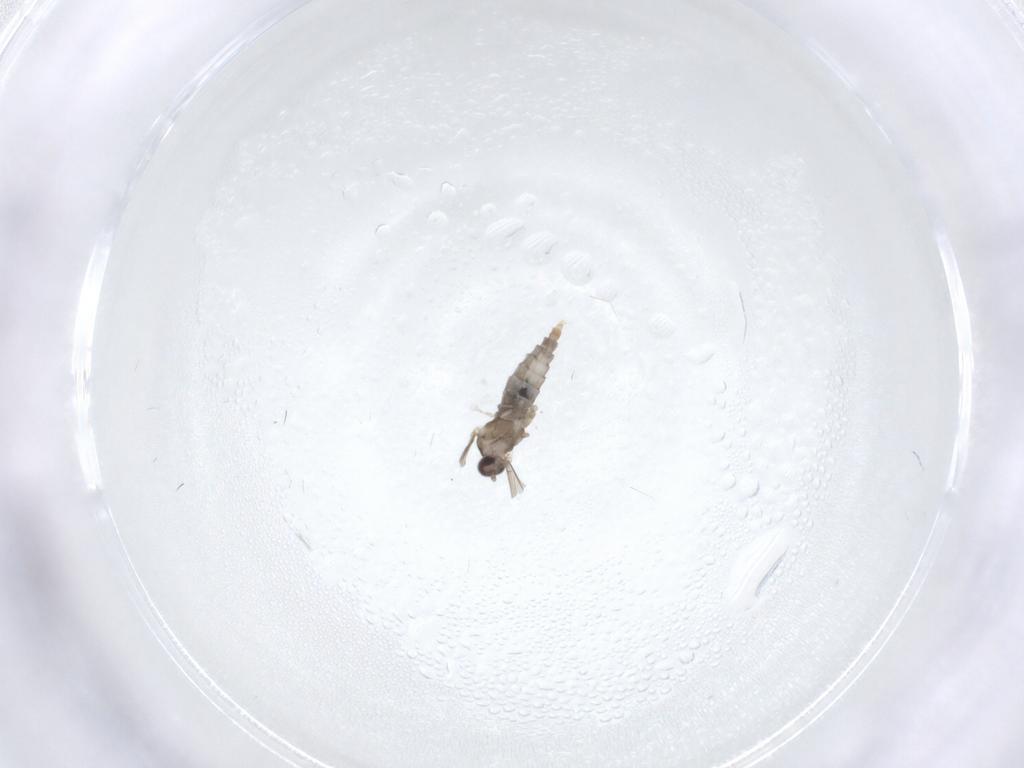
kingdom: Animalia
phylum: Arthropoda
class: Insecta
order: Diptera
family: Cecidomyiidae
